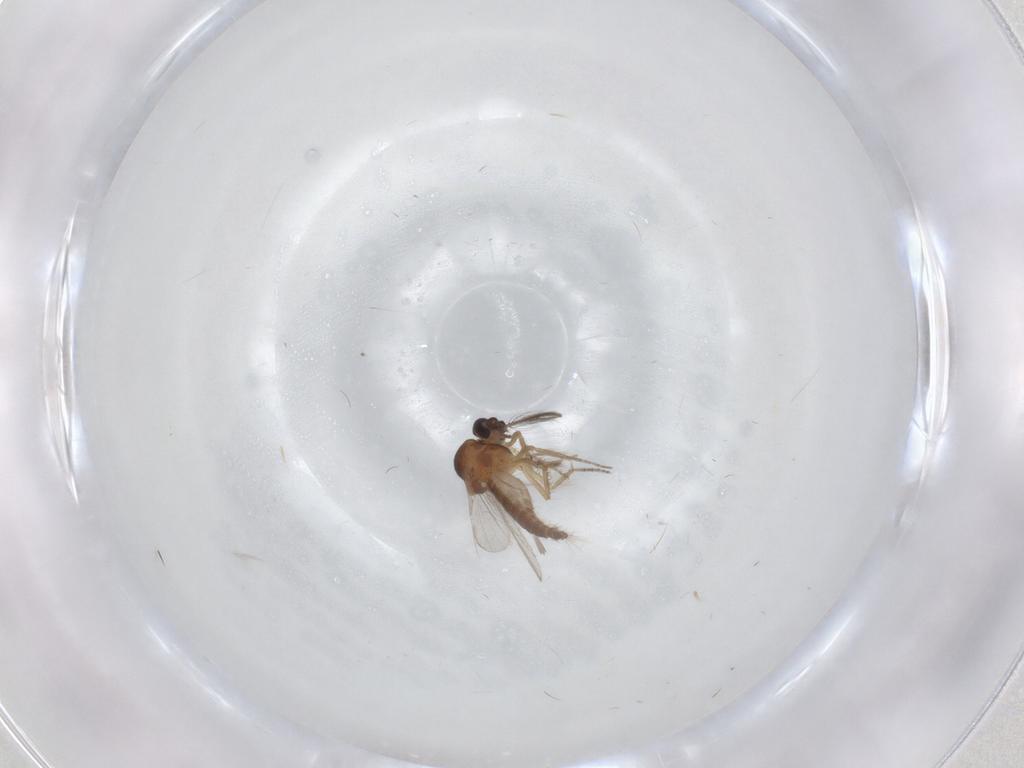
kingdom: Animalia
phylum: Arthropoda
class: Insecta
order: Diptera
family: Ceratopogonidae
